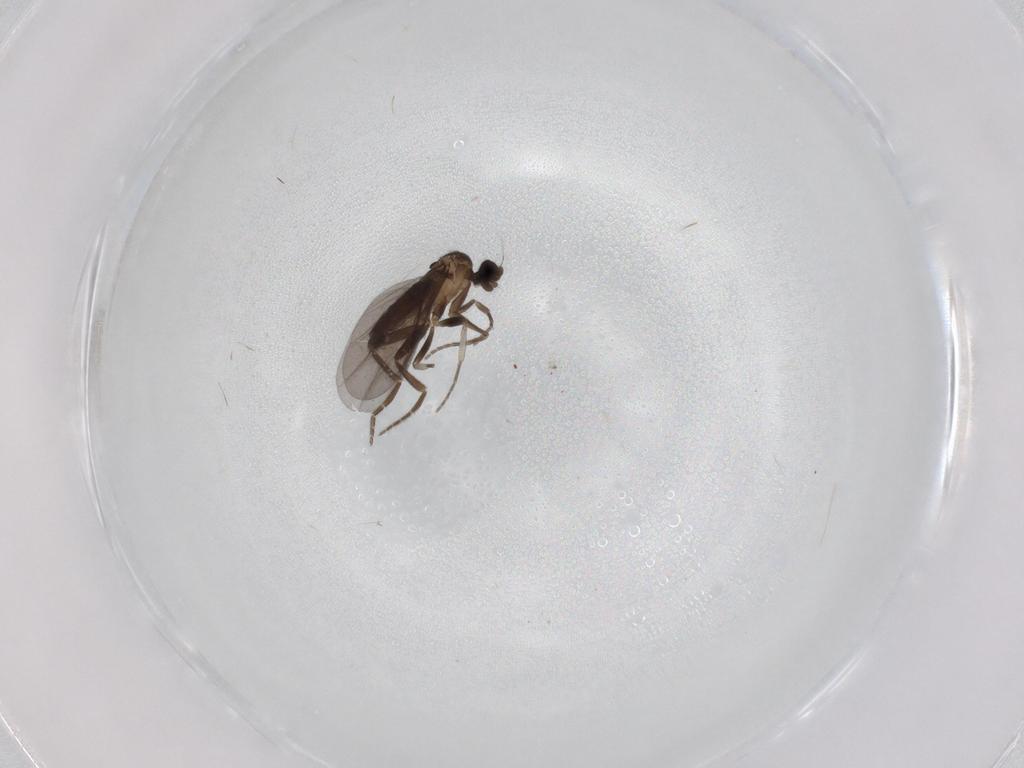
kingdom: Animalia
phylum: Arthropoda
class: Insecta
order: Diptera
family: Phoridae
